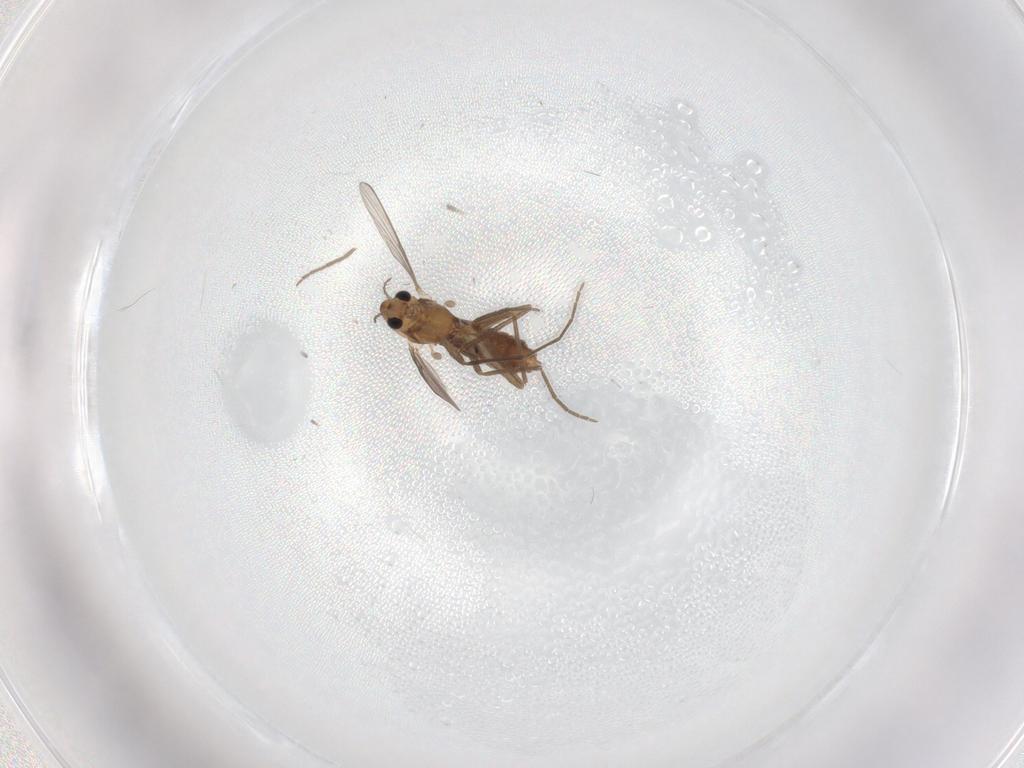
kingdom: Animalia
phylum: Arthropoda
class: Insecta
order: Diptera
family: Chironomidae
